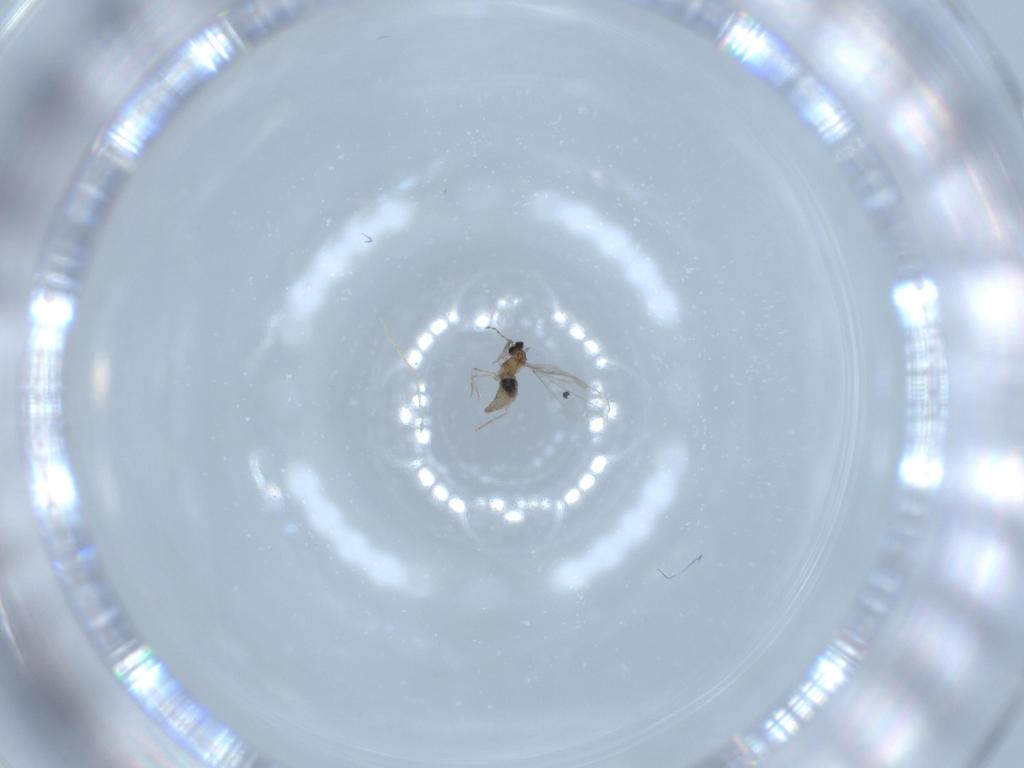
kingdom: Animalia
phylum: Arthropoda
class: Insecta
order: Diptera
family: Cecidomyiidae
